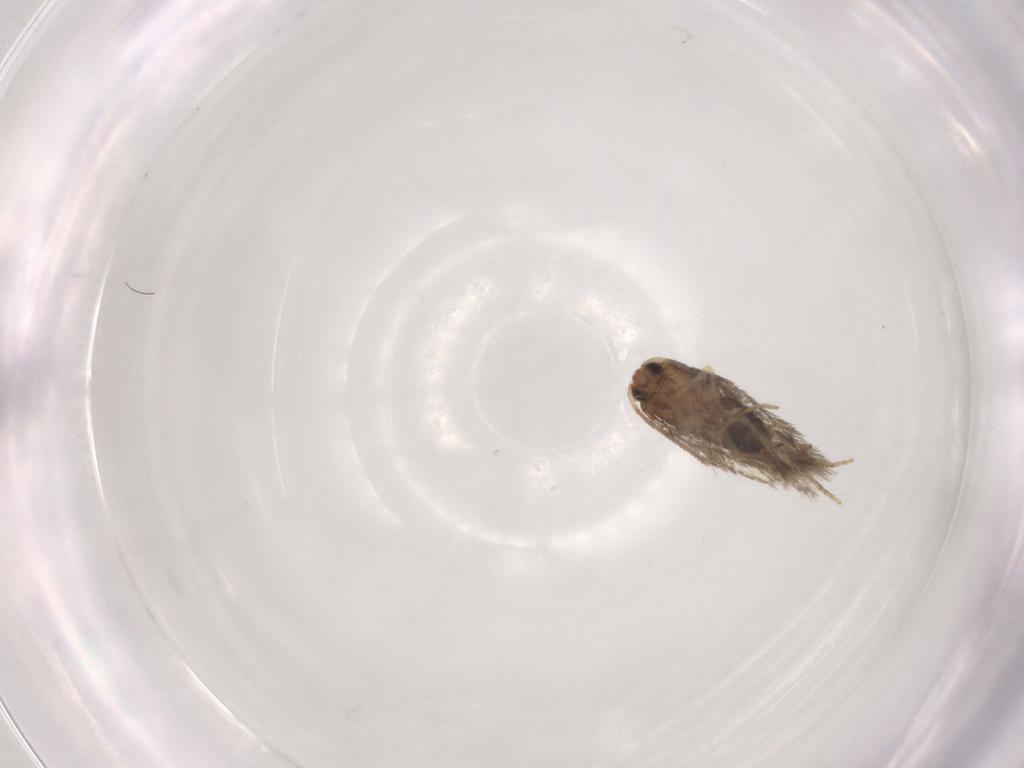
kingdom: Animalia
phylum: Arthropoda
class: Insecta
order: Lepidoptera
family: Nepticulidae
